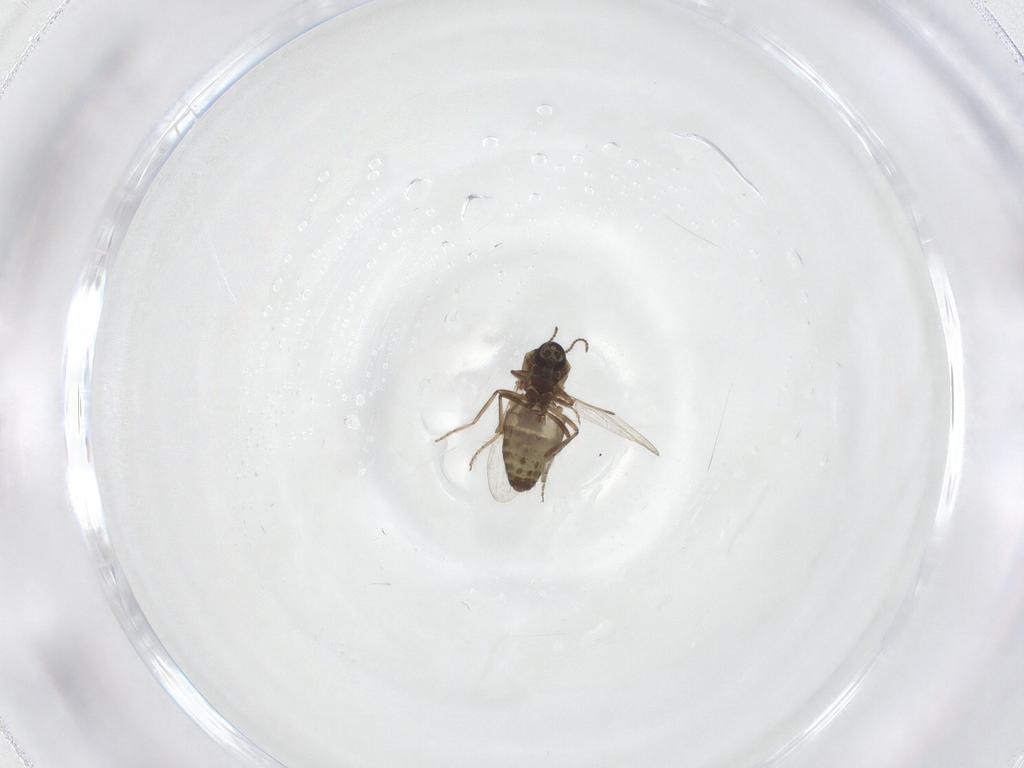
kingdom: Animalia
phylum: Arthropoda
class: Insecta
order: Diptera
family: Ceratopogonidae
